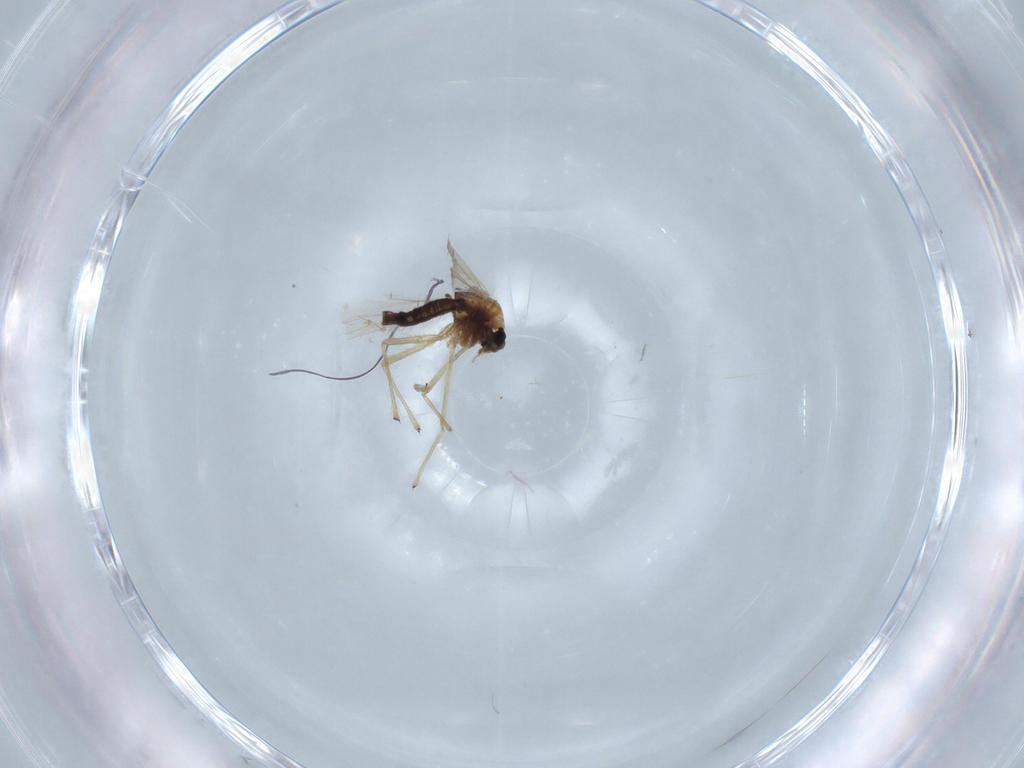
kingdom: Animalia
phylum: Arthropoda
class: Insecta
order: Diptera
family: Chironomidae
